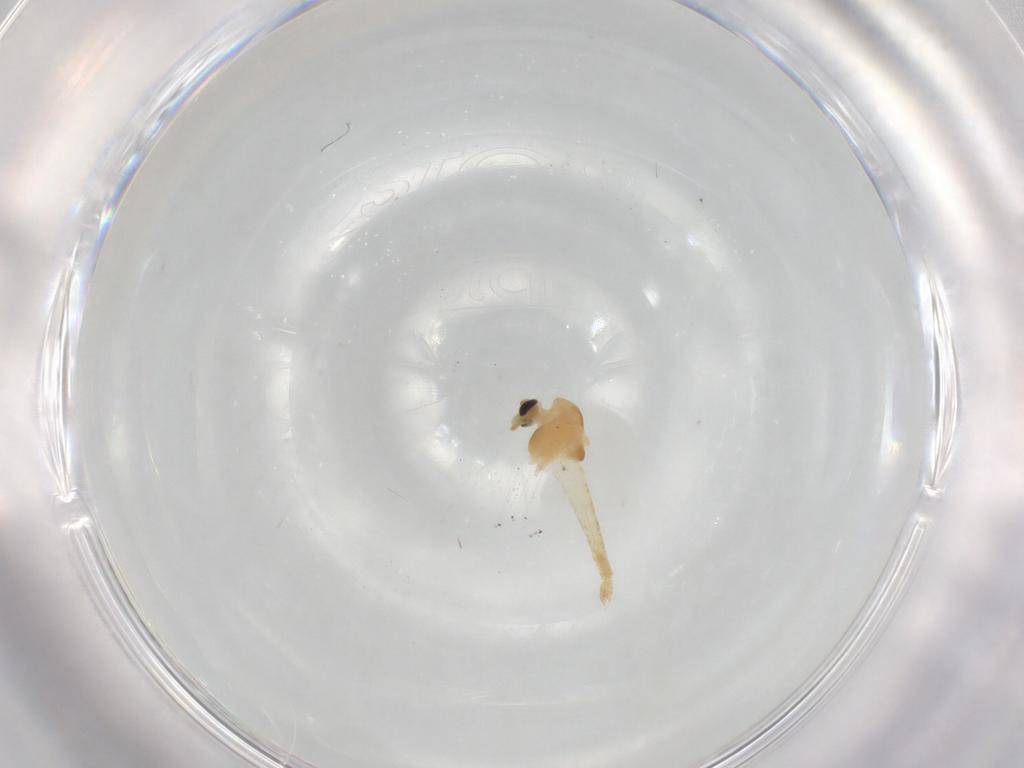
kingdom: Animalia
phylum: Arthropoda
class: Insecta
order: Diptera
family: Chironomidae
